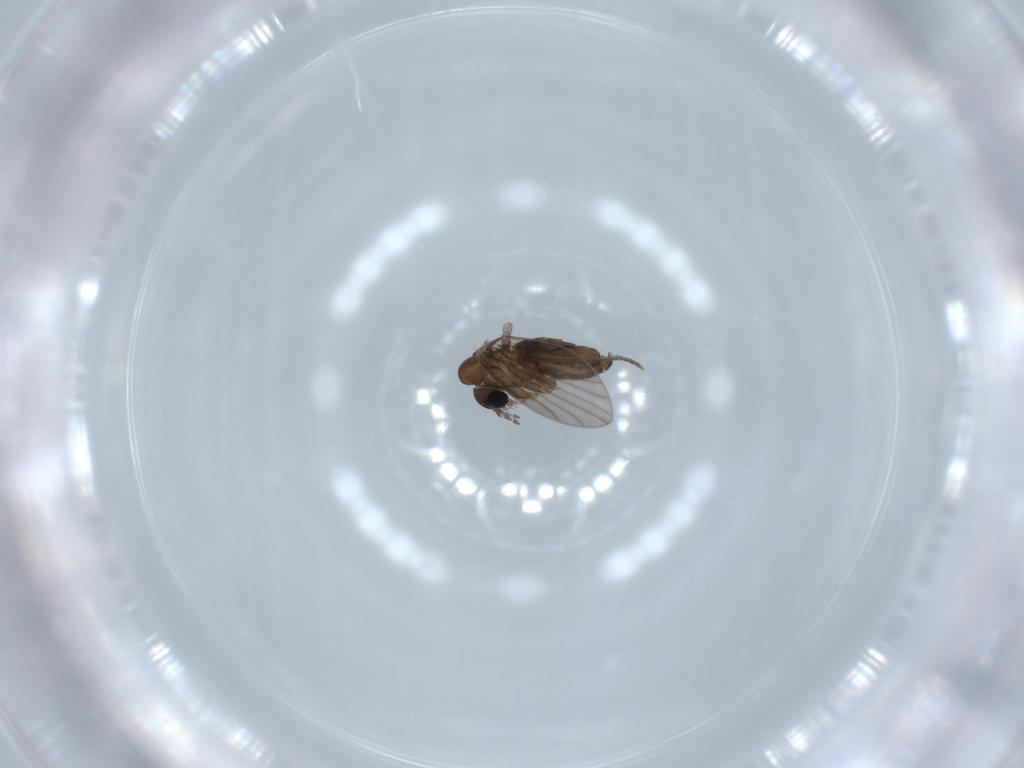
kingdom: Animalia
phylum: Arthropoda
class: Insecta
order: Diptera
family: Psychodidae
